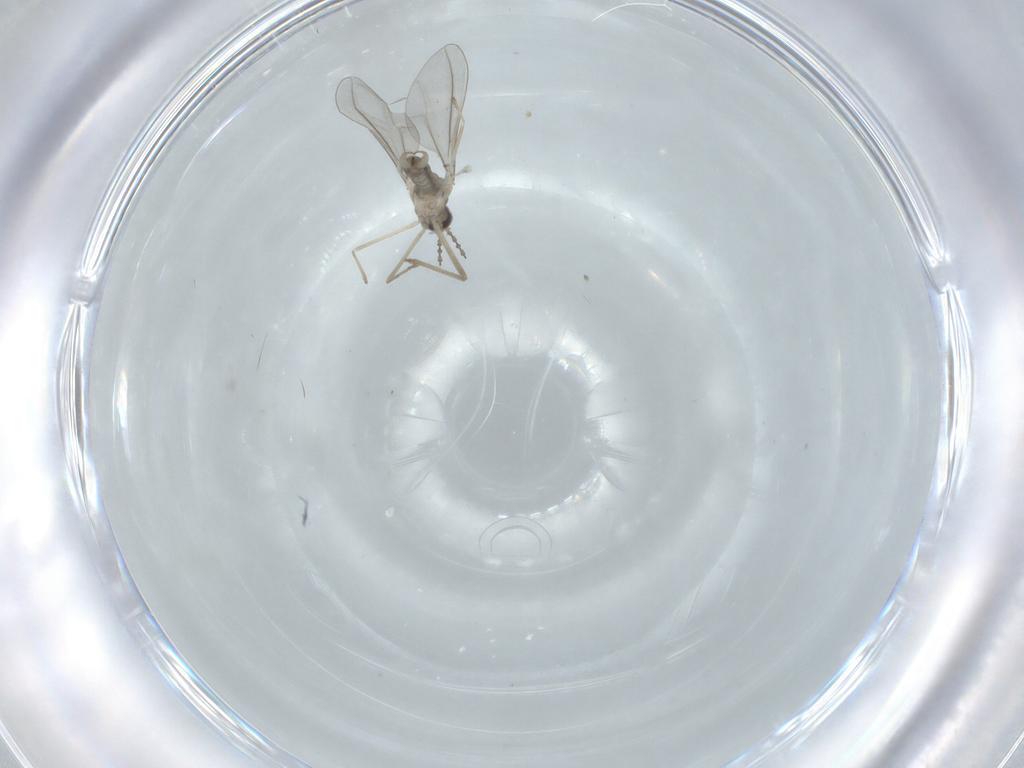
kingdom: Animalia
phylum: Arthropoda
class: Insecta
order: Diptera
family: Cecidomyiidae
